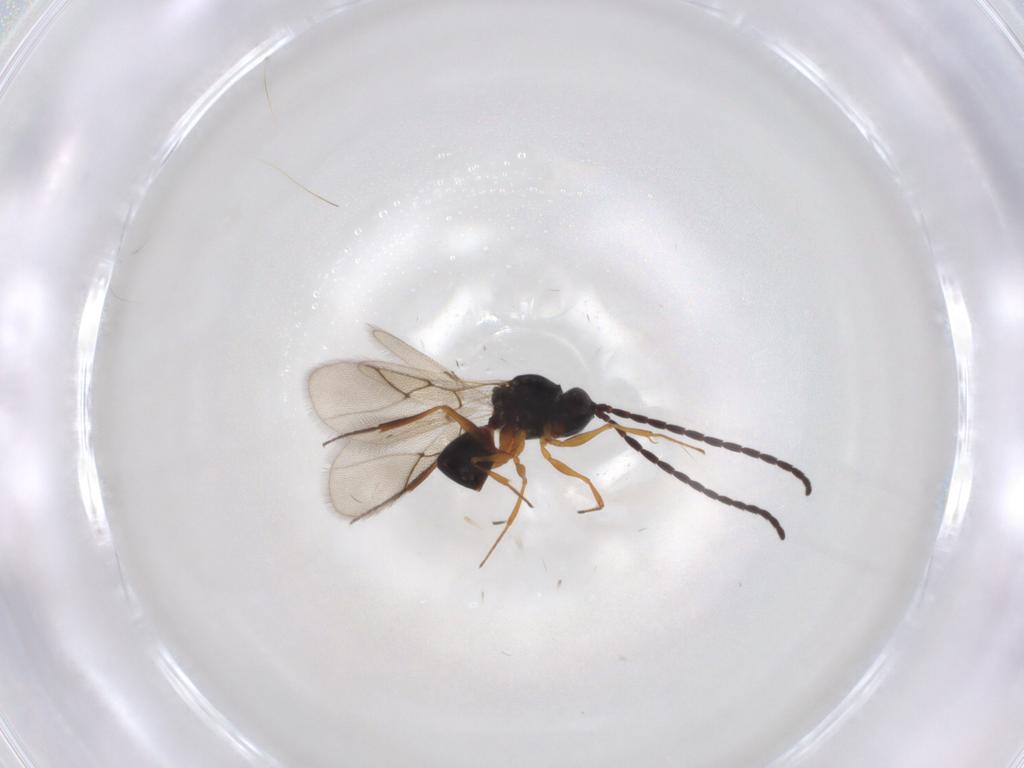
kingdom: Animalia
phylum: Arthropoda
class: Insecta
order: Hymenoptera
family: Figitidae
